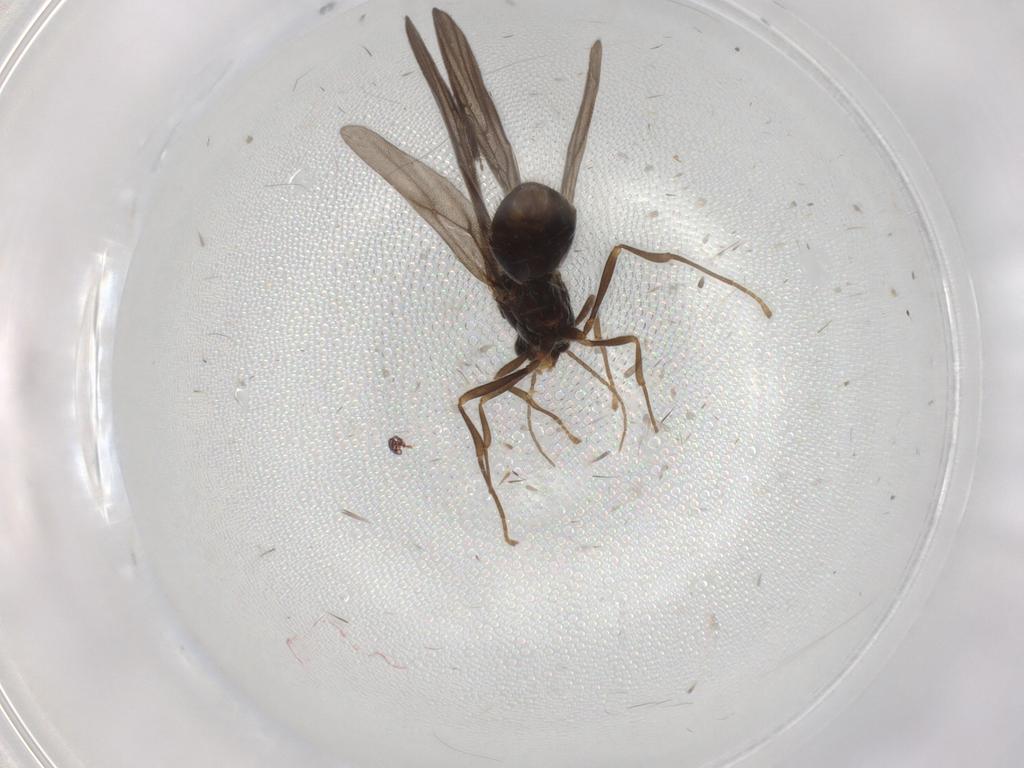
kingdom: Animalia
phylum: Arthropoda
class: Insecta
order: Hymenoptera
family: Formicidae
